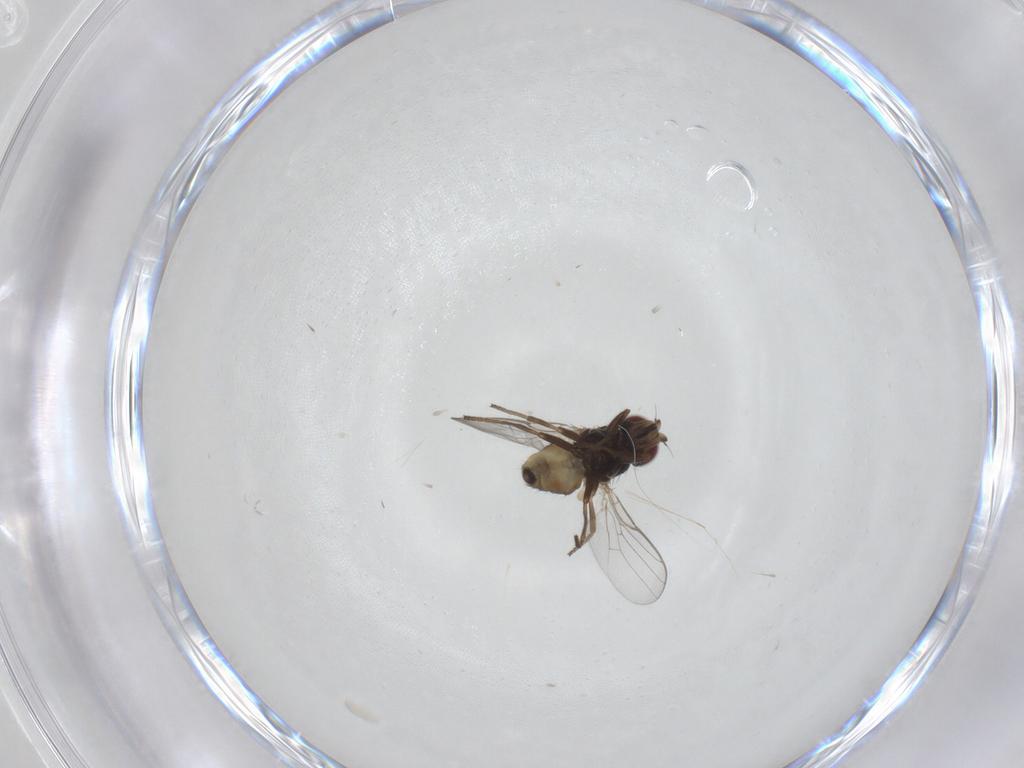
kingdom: Animalia
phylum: Arthropoda
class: Insecta
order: Diptera
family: Chloropidae
